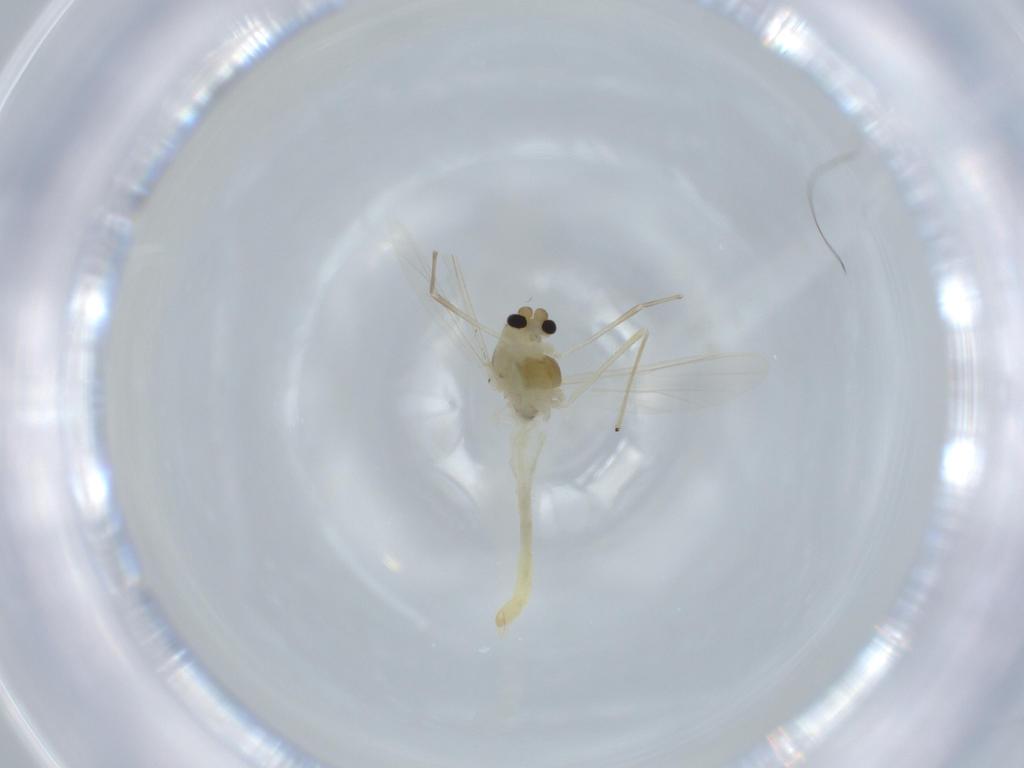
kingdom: Animalia
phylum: Arthropoda
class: Insecta
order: Diptera
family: Chironomidae
